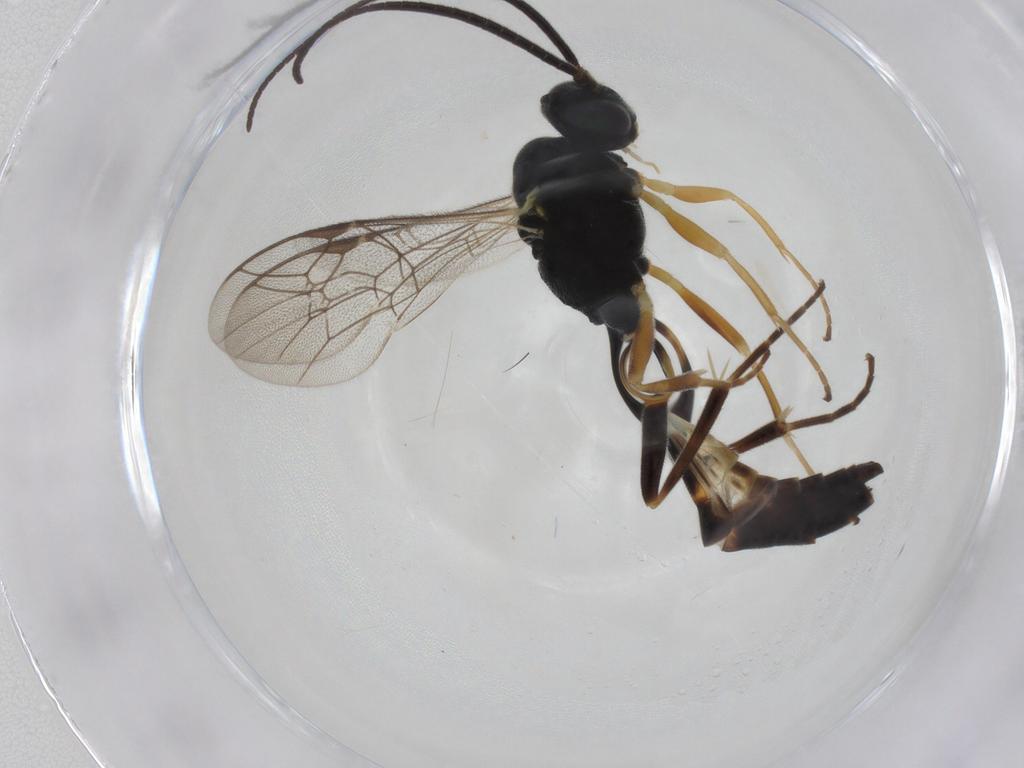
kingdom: Animalia
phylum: Arthropoda
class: Insecta
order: Hymenoptera
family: Ichneumonidae
